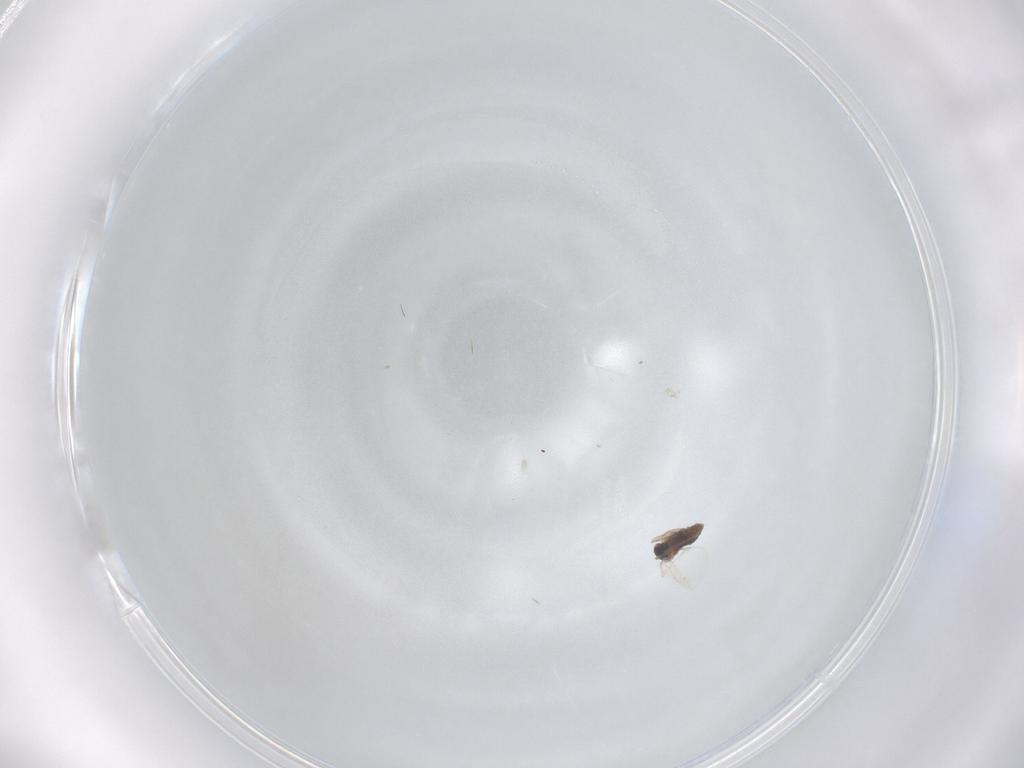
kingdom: Animalia
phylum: Arthropoda
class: Insecta
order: Diptera
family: Cecidomyiidae
